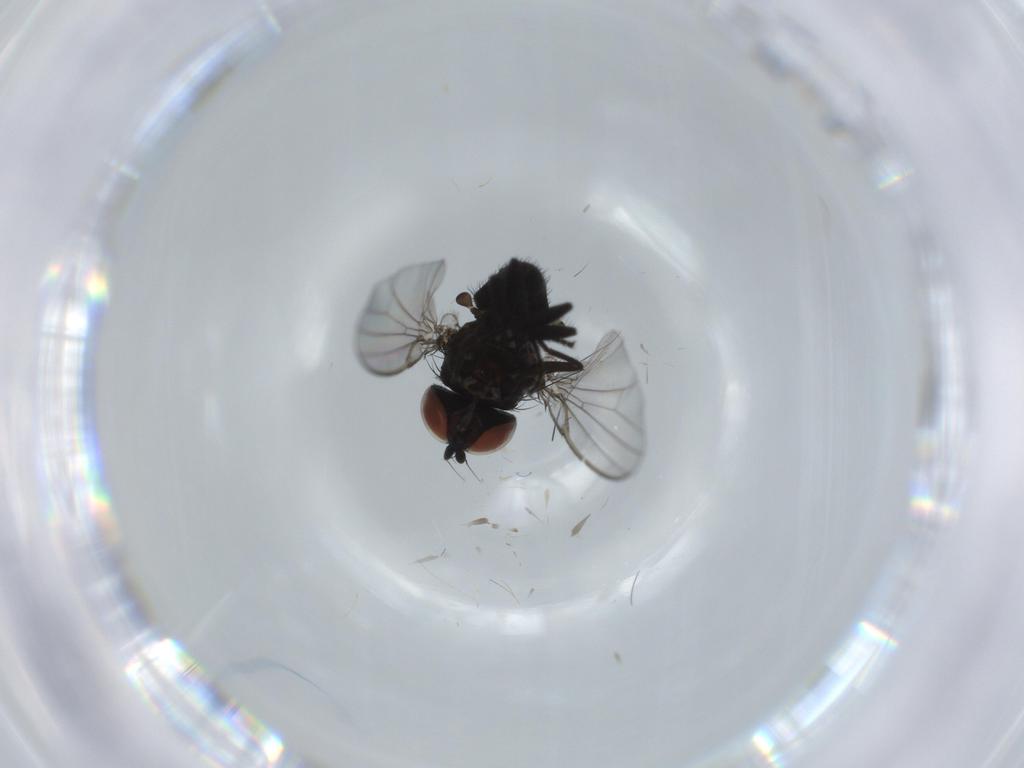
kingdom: Animalia
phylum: Arthropoda
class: Insecta
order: Diptera
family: Milichiidae
